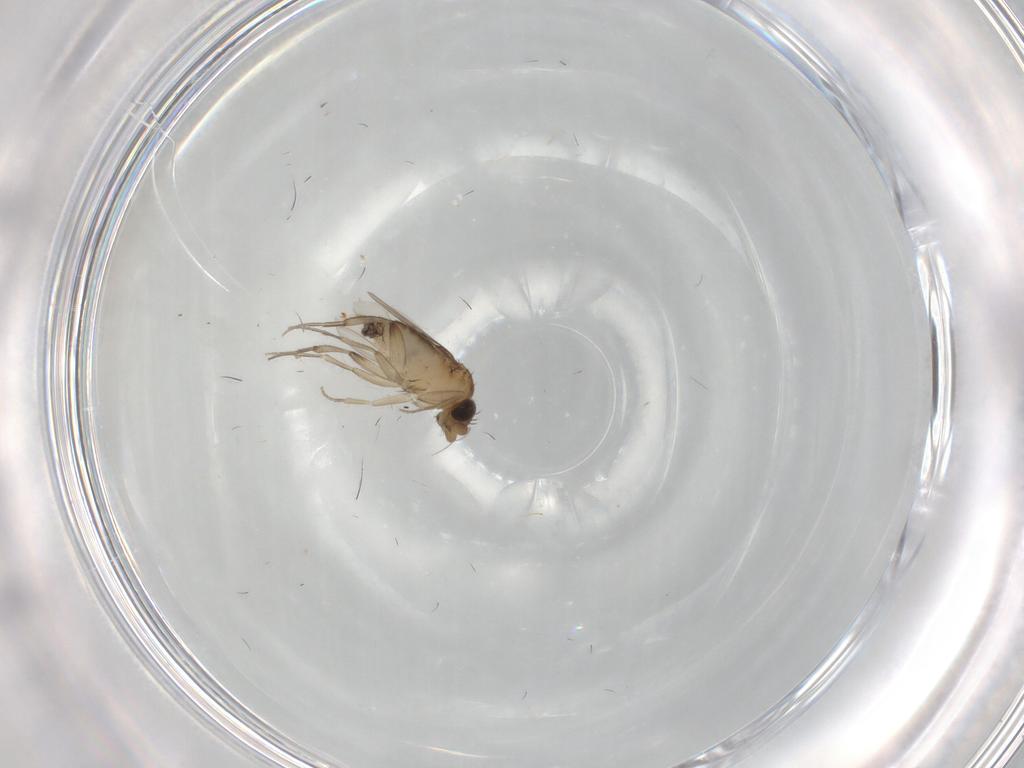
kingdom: Animalia
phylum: Arthropoda
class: Insecta
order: Diptera
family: Phoridae
